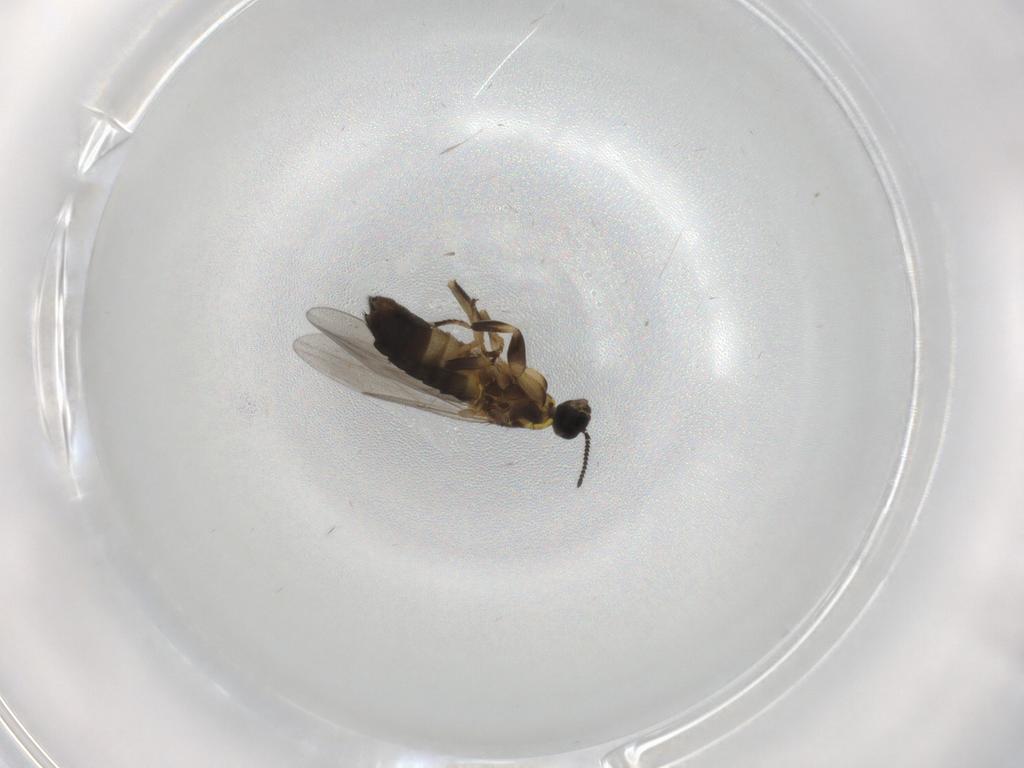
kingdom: Animalia
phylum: Arthropoda
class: Insecta
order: Diptera
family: Scatopsidae
